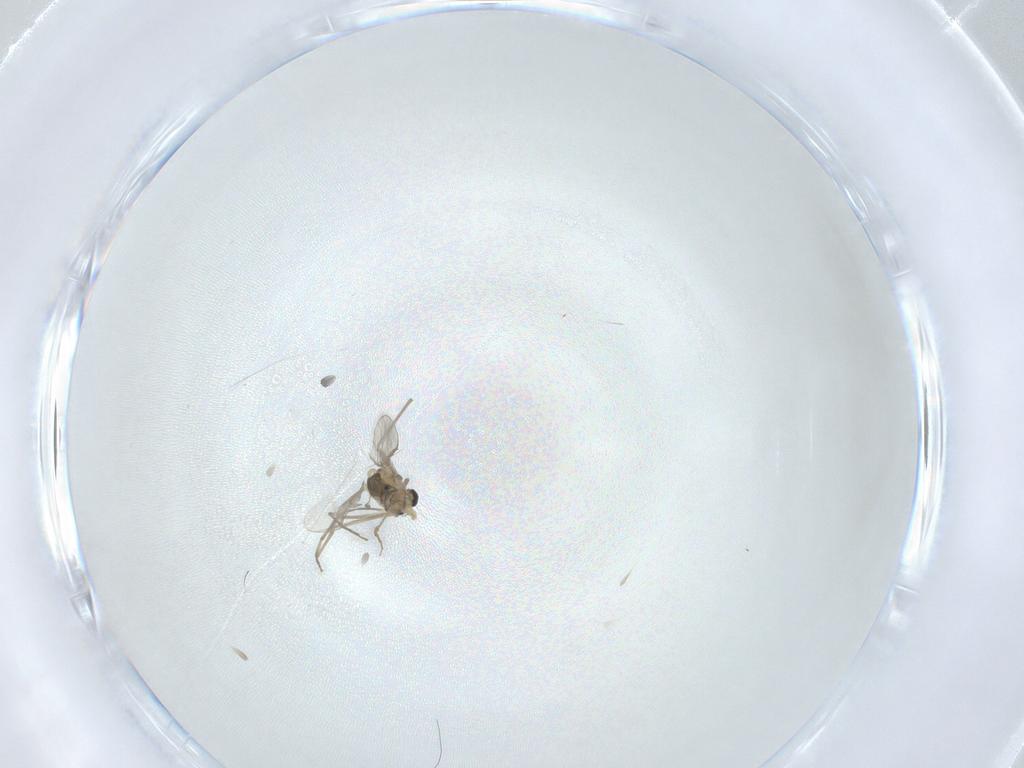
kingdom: Animalia
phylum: Arthropoda
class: Insecta
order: Diptera
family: Chironomidae
